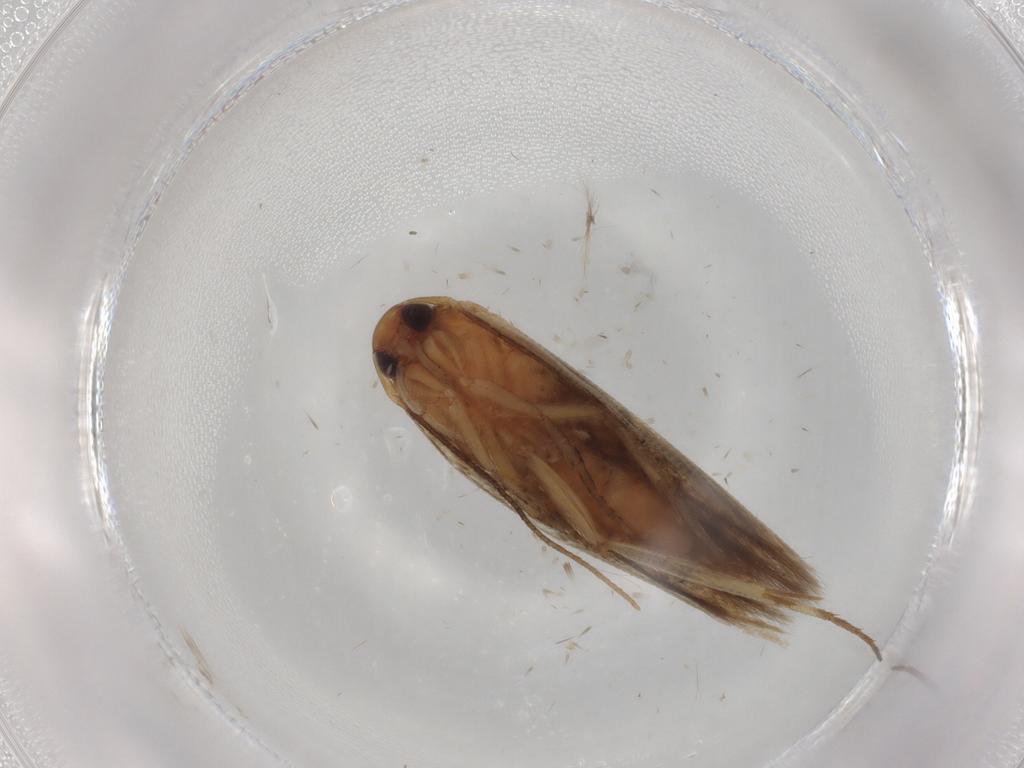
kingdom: Animalia
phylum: Arthropoda
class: Insecta
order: Lepidoptera
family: Cosmopterigidae
